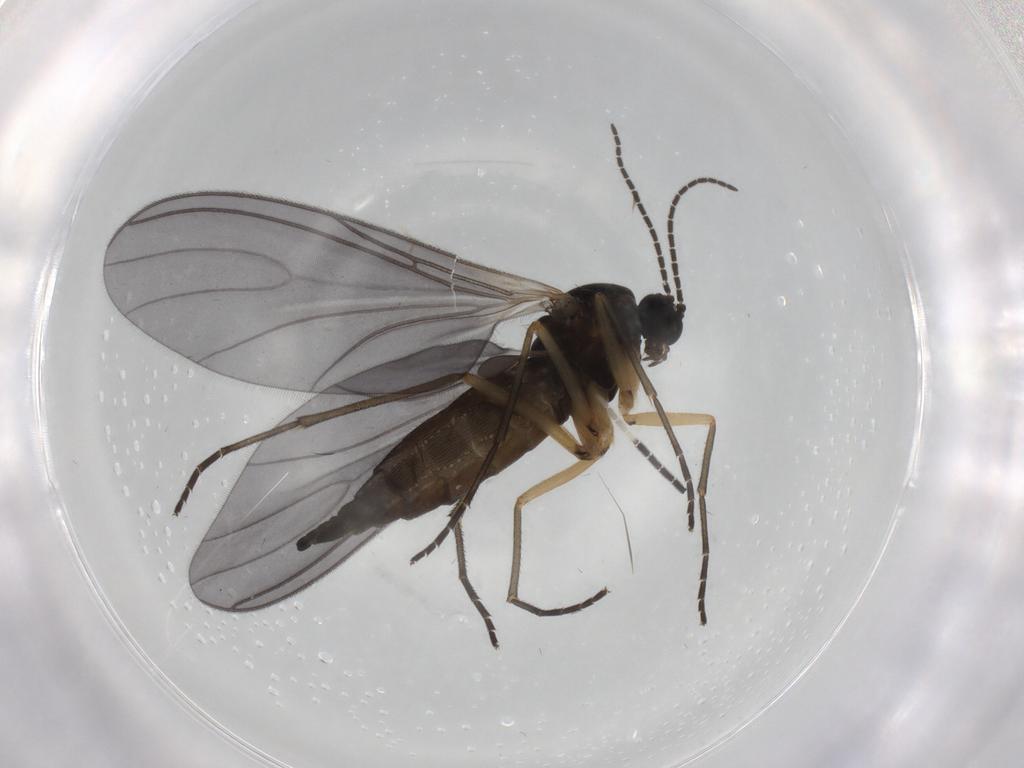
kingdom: Animalia
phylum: Arthropoda
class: Insecta
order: Diptera
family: Sciaridae
